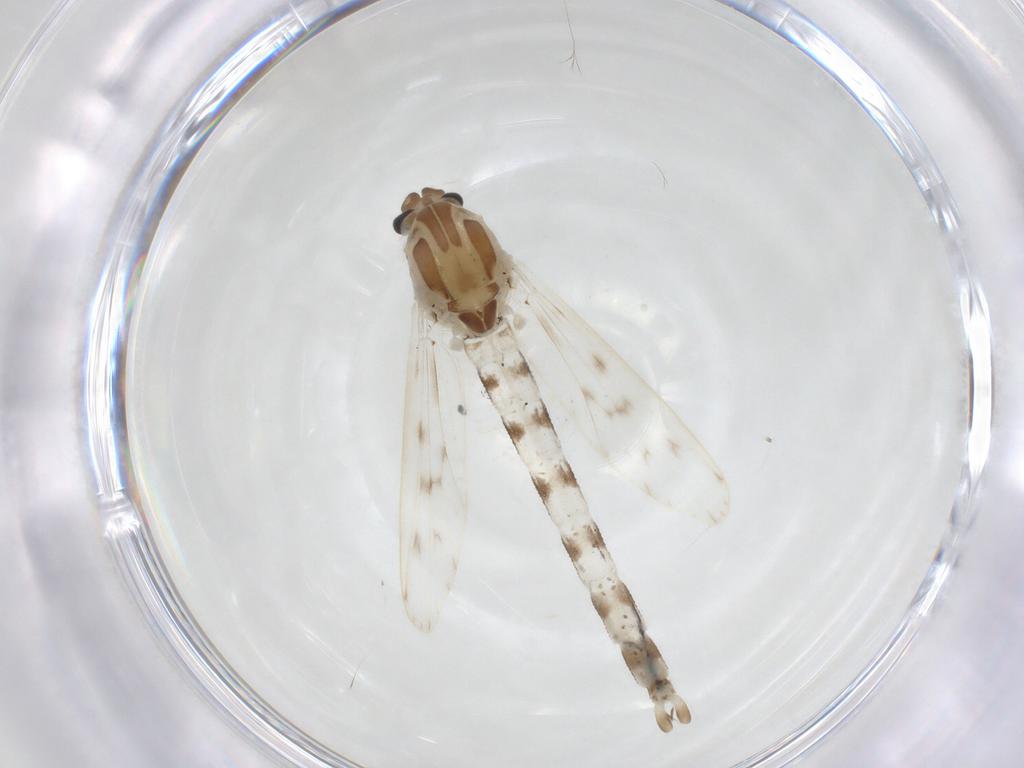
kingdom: Animalia
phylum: Arthropoda
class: Insecta
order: Diptera
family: Chaoboridae
